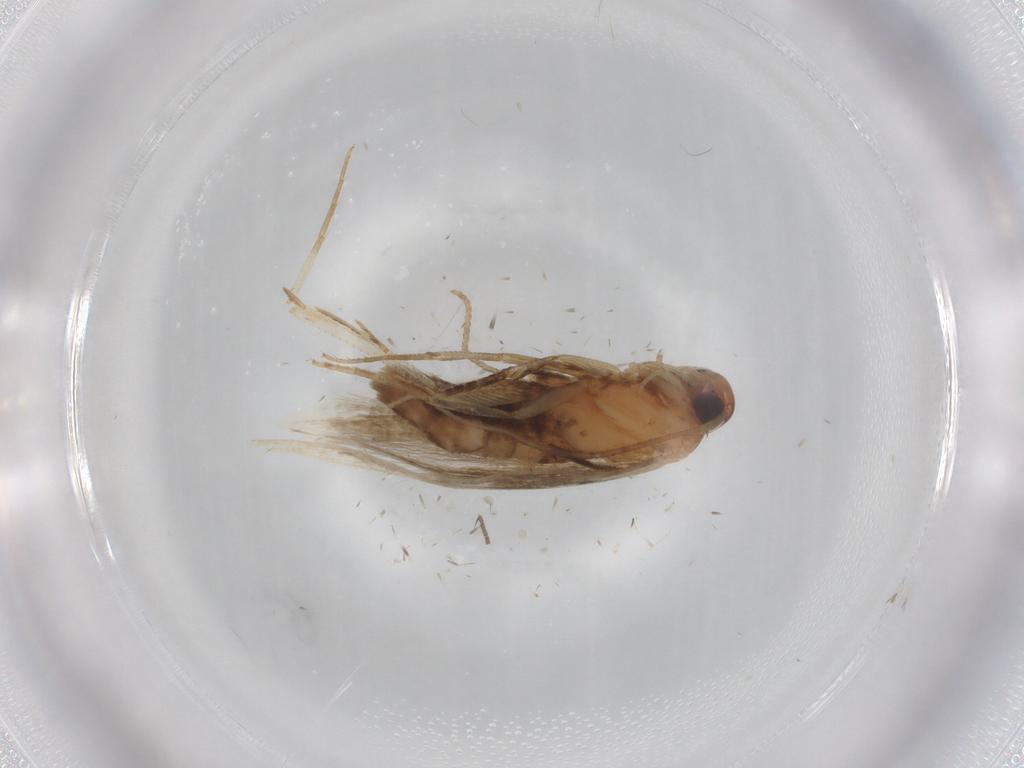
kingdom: Animalia
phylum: Arthropoda
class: Insecta
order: Lepidoptera
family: Cosmopterigidae
